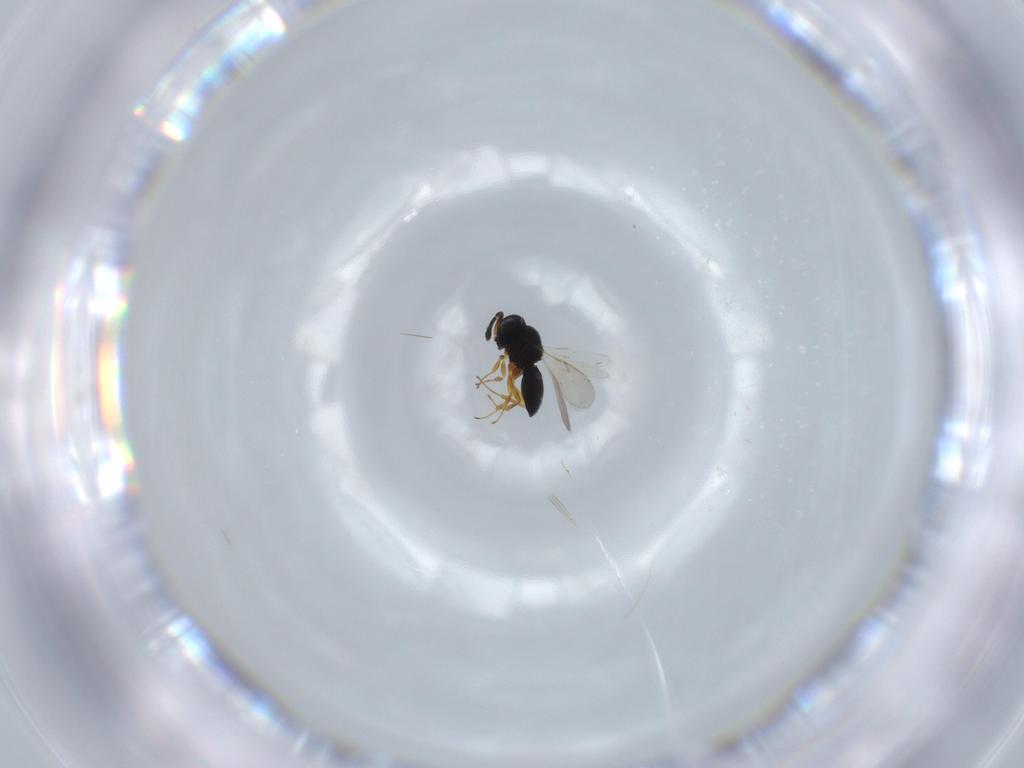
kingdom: Animalia
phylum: Arthropoda
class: Insecta
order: Hymenoptera
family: Scelionidae
